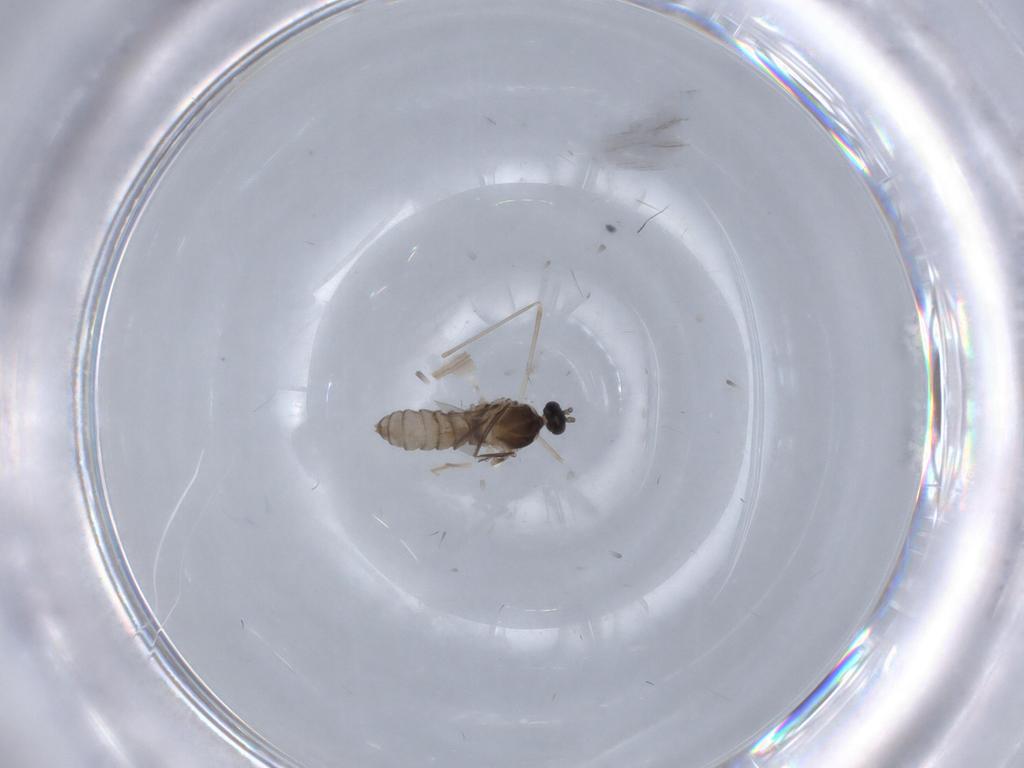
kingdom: Animalia
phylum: Arthropoda
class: Insecta
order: Diptera
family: Cecidomyiidae
